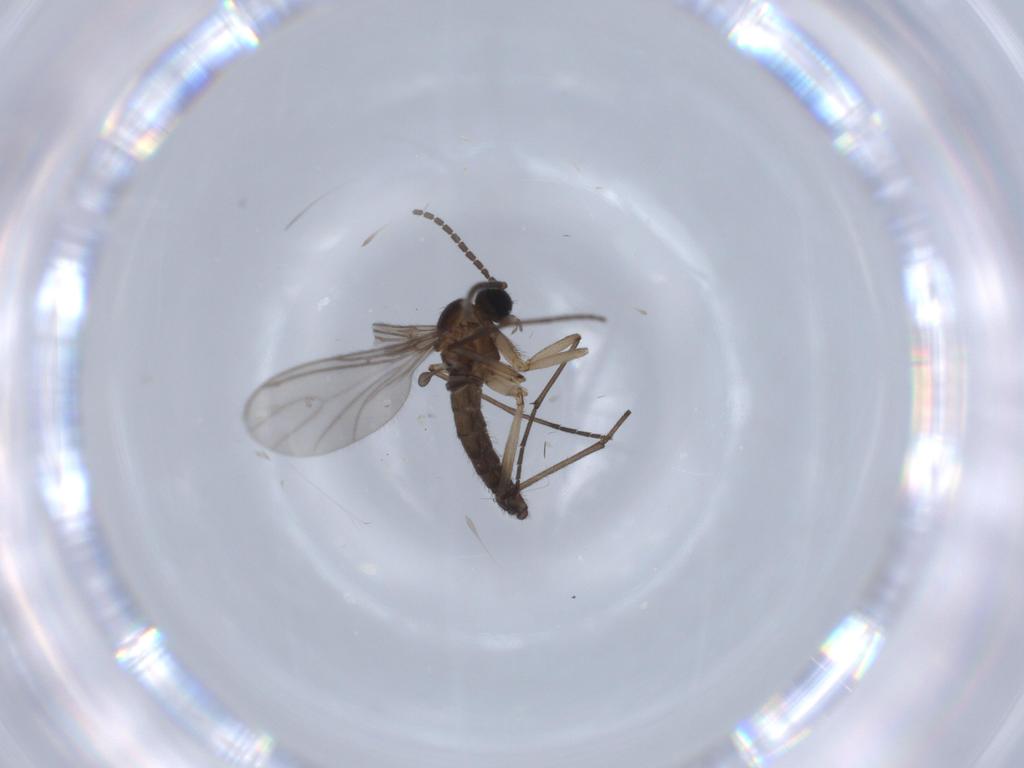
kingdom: Animalia
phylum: Arthropoda
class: Insecta
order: Diptera
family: Sciaridae
